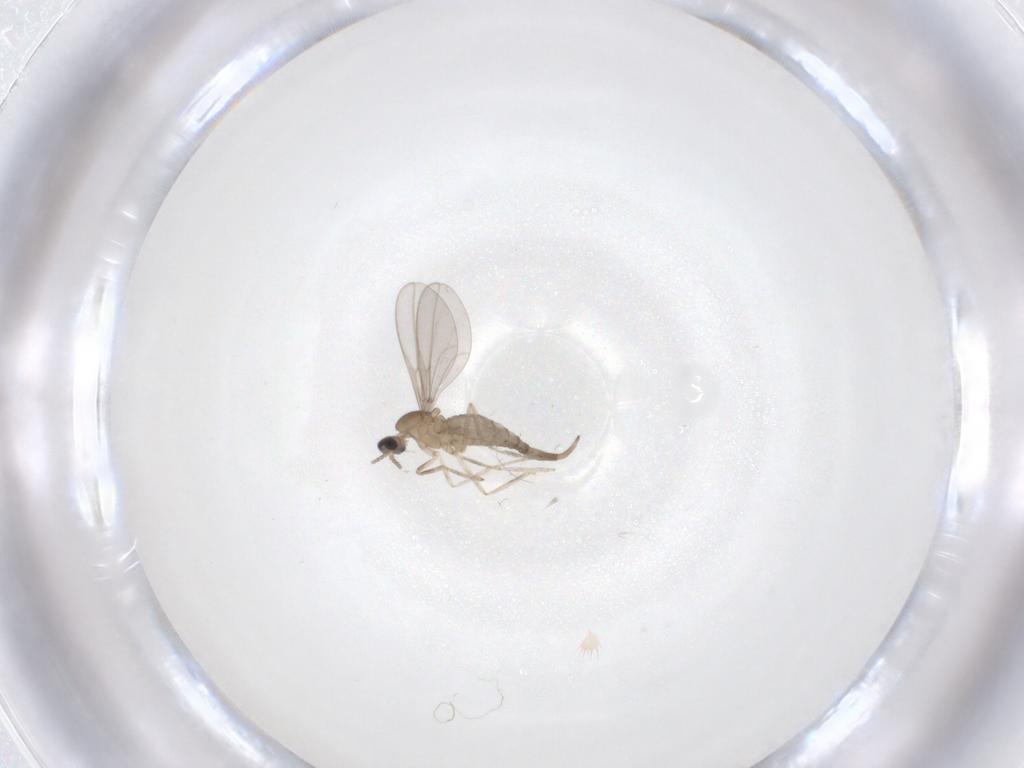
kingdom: Animalia
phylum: Arthropoda
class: Insecta
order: Diptera
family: Cecidomyiidae
